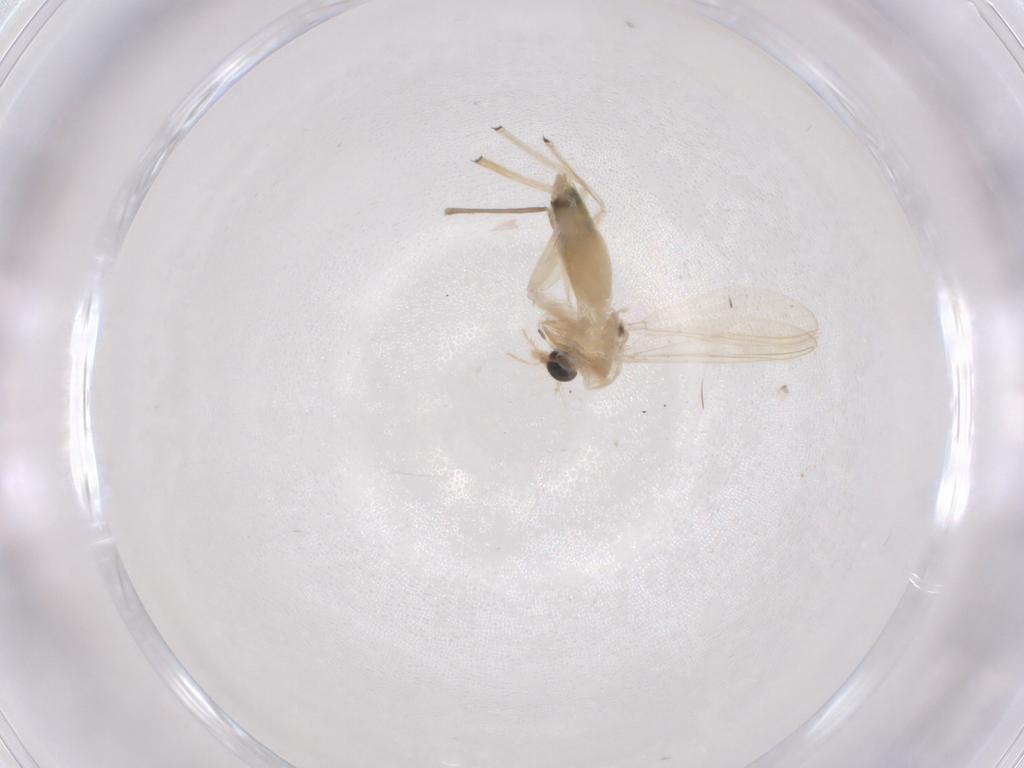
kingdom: Animalia
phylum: Arthropoda
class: Insecta
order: Diptera
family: Chironomidae
